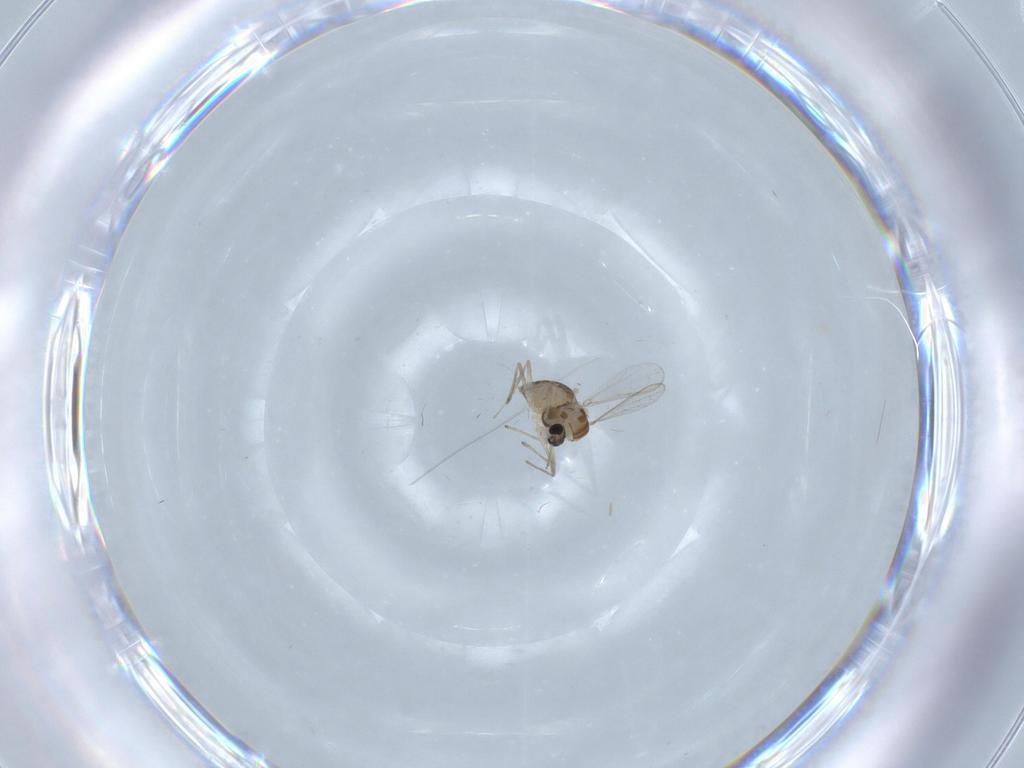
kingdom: Animalia
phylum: Arthropoda
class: Insecta
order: Diptera
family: Chironomidae
